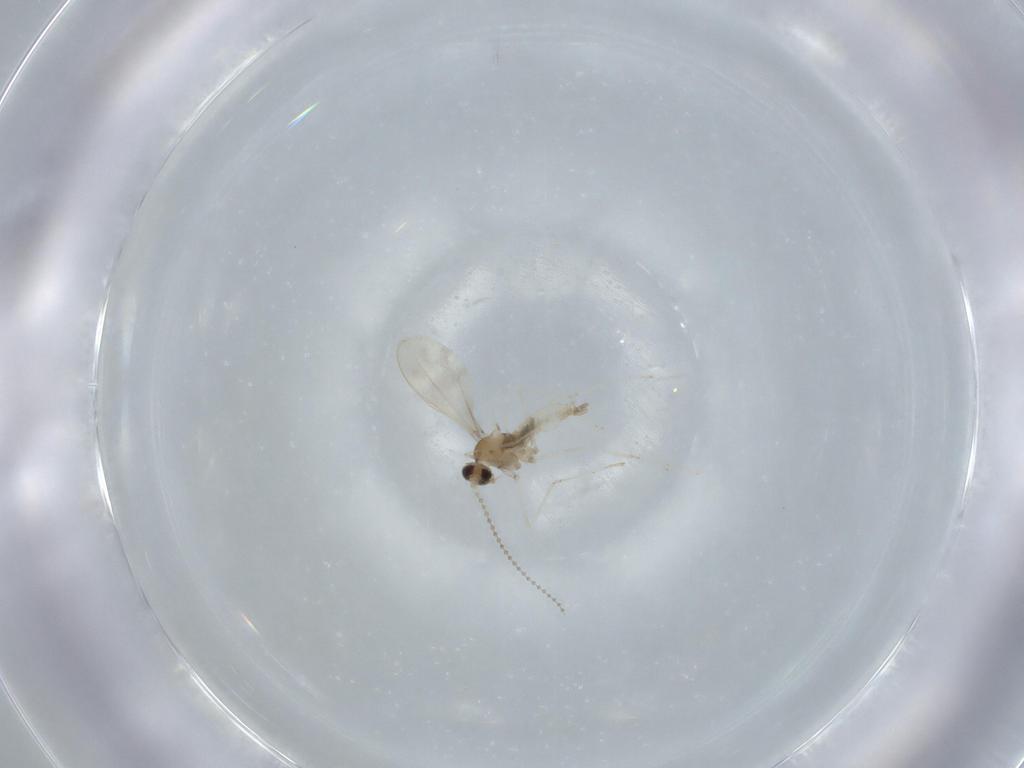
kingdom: Animalia
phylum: Arthropoda
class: Insecta
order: Diptera
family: Cecidomyiidae
